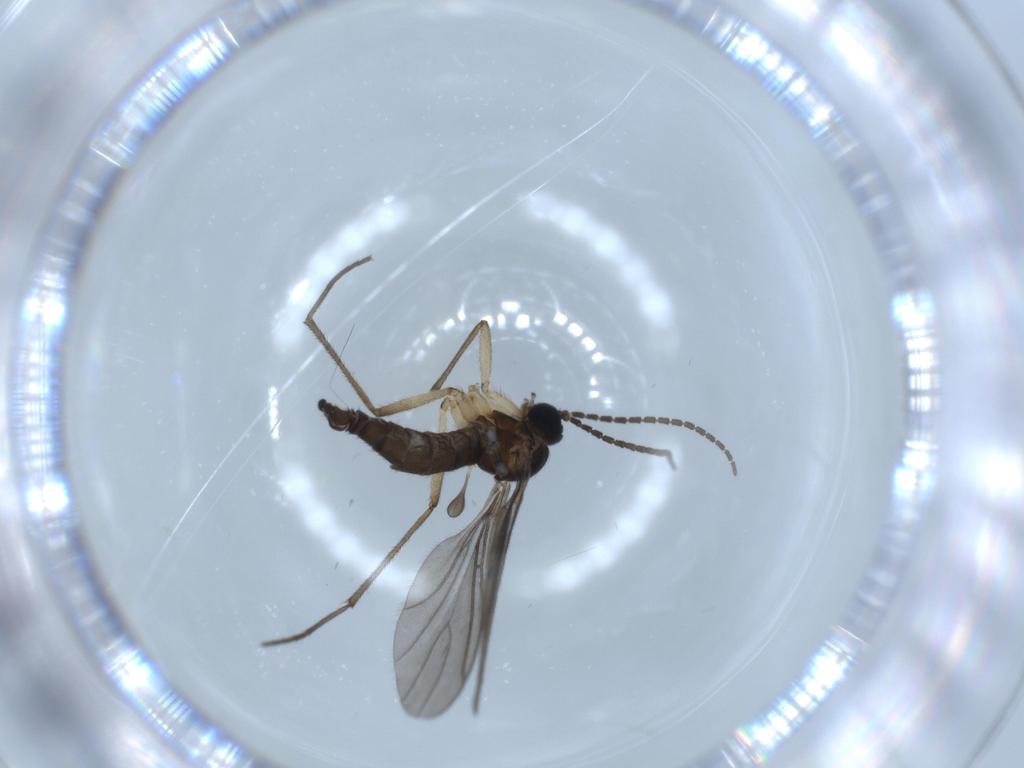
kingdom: Animalia
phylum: Arthropoda
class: Insecta
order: Diptera
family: Sciaridae
